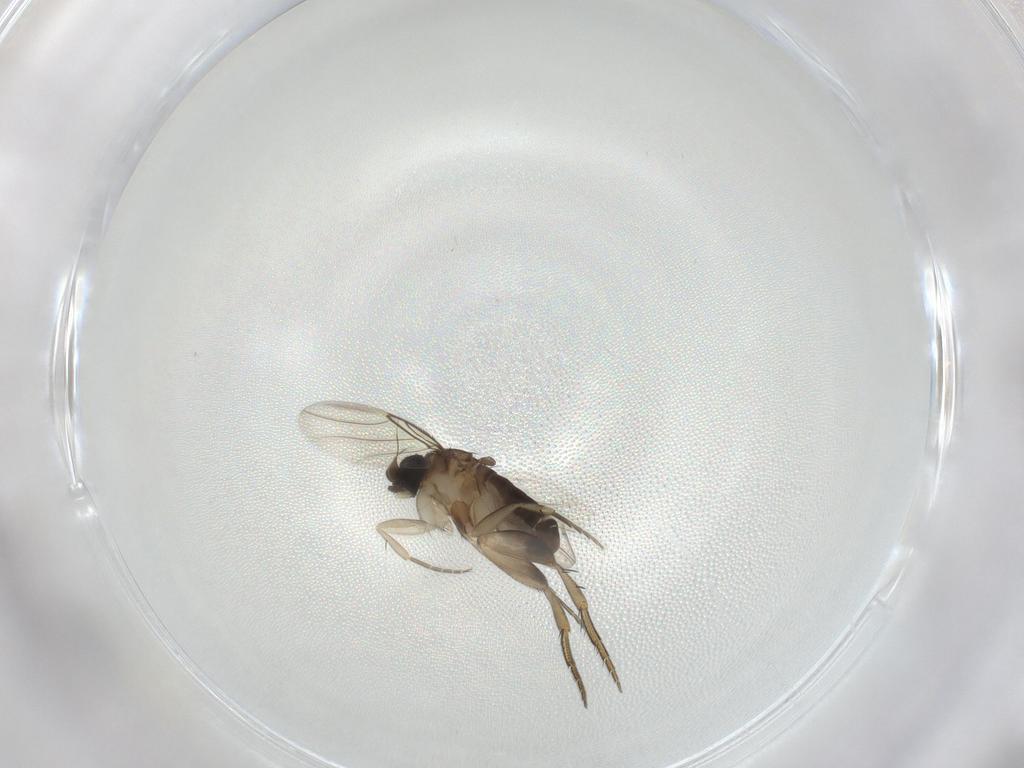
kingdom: Animalia
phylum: Arthropoda
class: Insecta
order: Diptera
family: Phoridae
